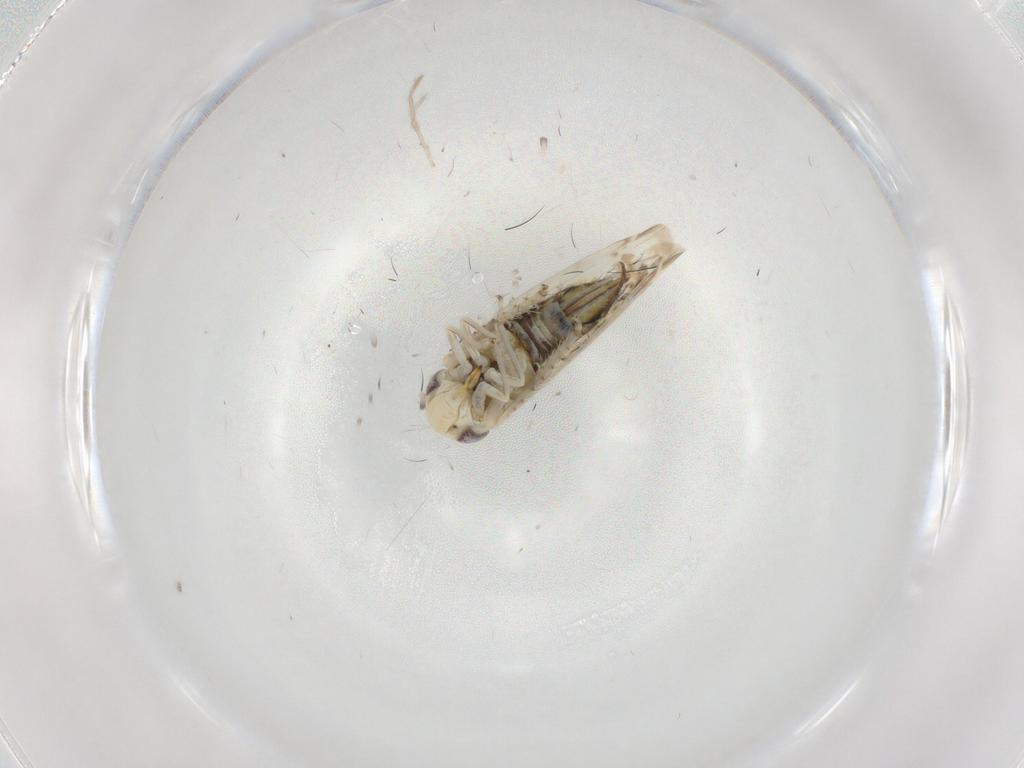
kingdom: Animalia
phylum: Arthropoda
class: Insecta
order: Hemiptera
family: Cicadellidae
